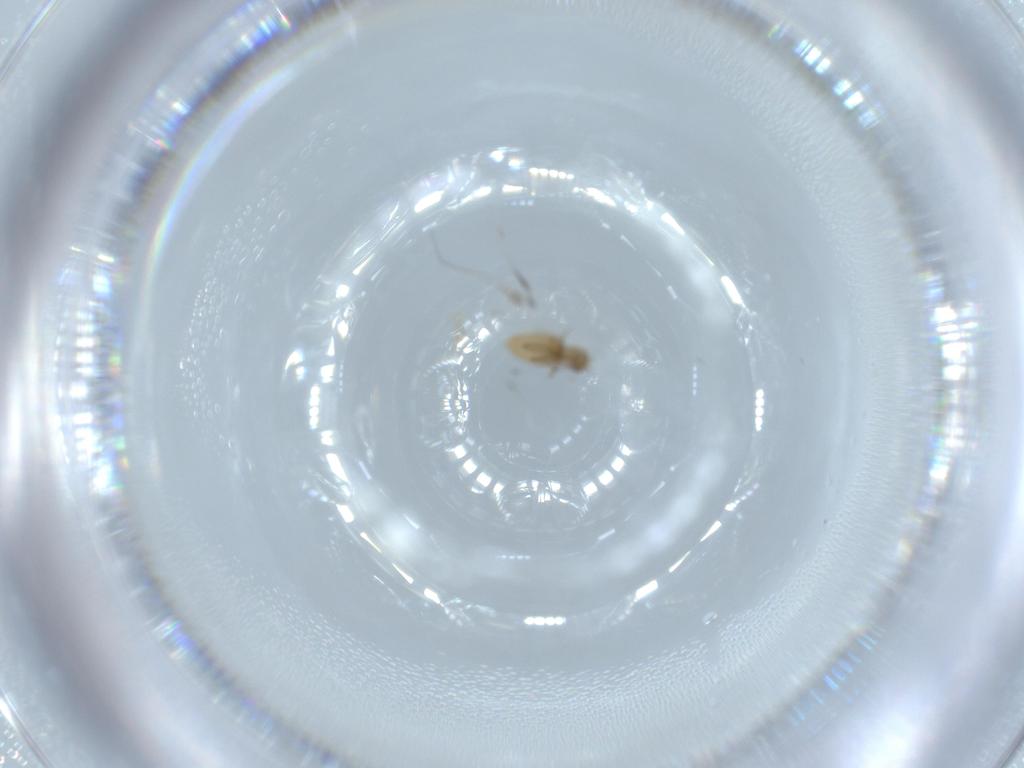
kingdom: Animalia
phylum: Arthropoda
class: Insecta
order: Diptera
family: Phoridae
